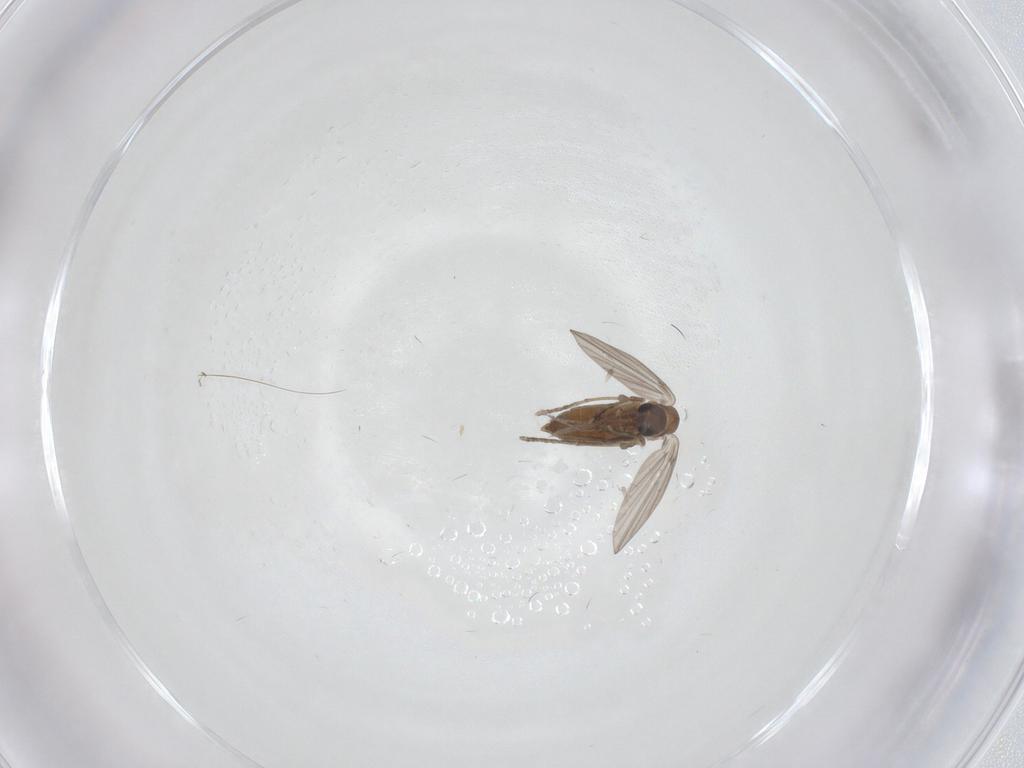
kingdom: Animalia
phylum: Arthropoda
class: Insecta
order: Diptera
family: Phoridae
